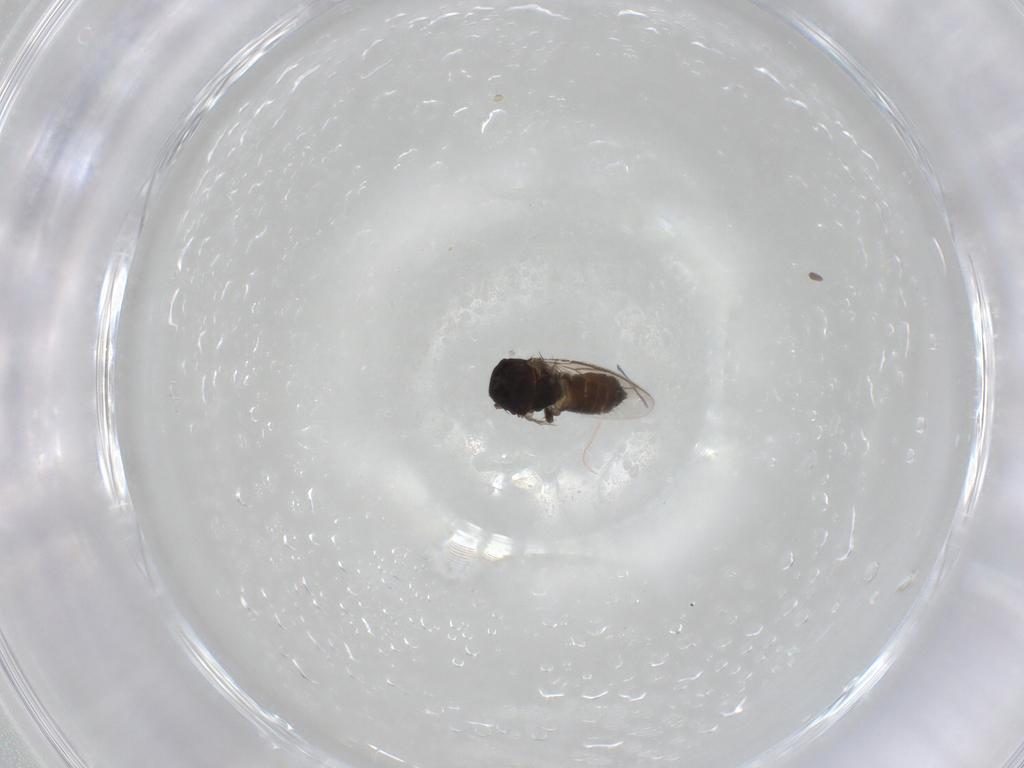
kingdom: Animalia
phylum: Arthropoda
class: Insecta
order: Diptera
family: Sphaeroceridae
